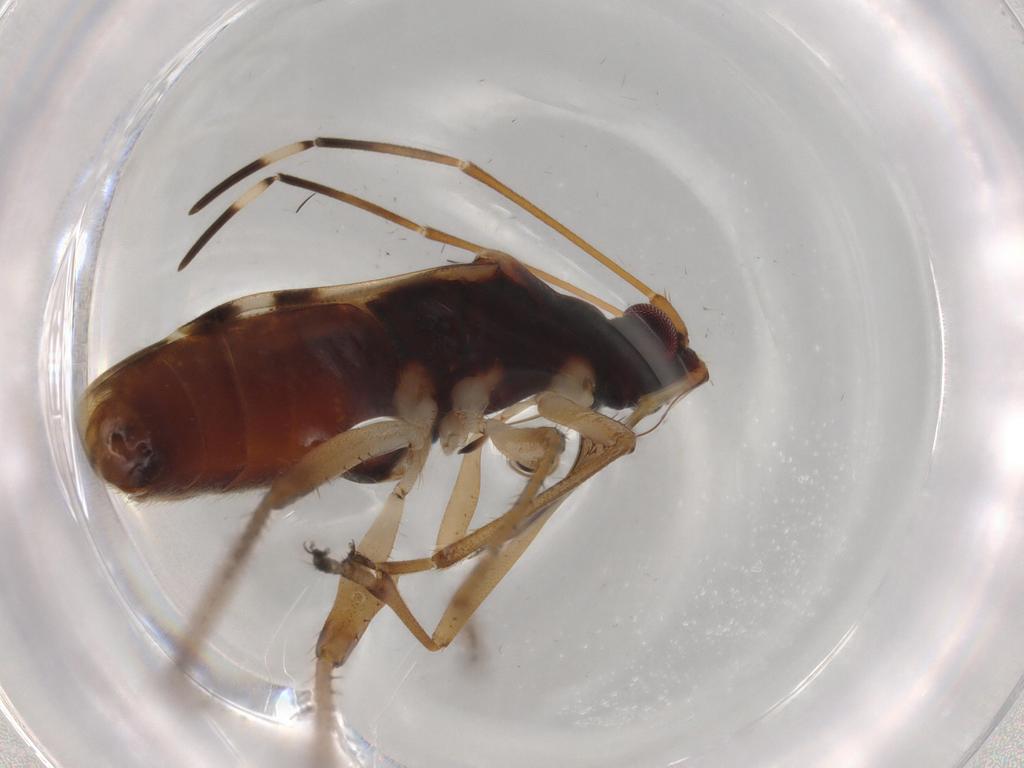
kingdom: Animalia
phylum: Arthropoda
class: Insecta
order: Hemiptera
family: Rhyparochromidae
